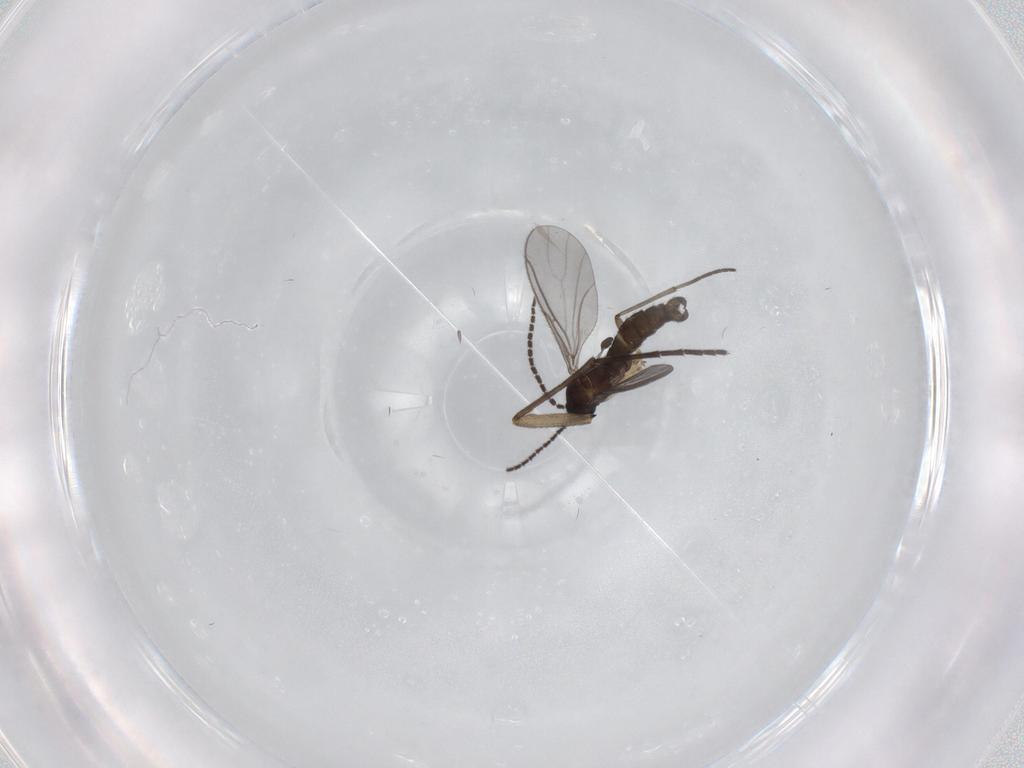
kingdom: Animalia
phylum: Arthropoda
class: Insecta
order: Diptera
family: Sciaridae
